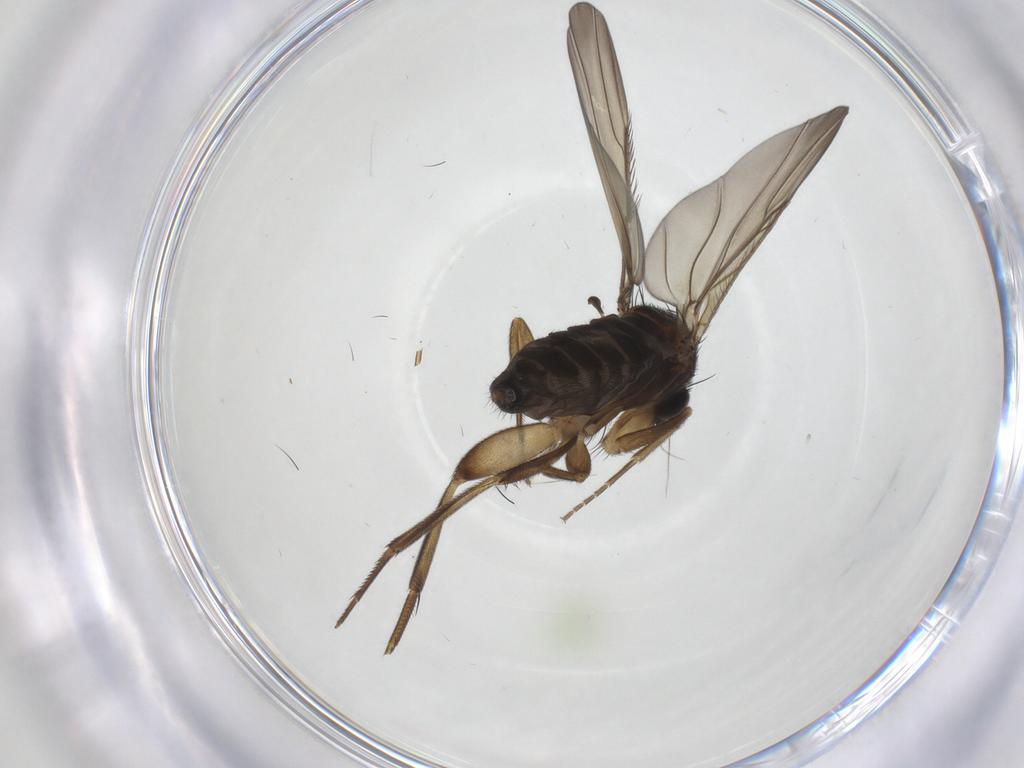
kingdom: Animalia
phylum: Arthropoda
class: Insecta
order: Diptera
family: Phoridae
